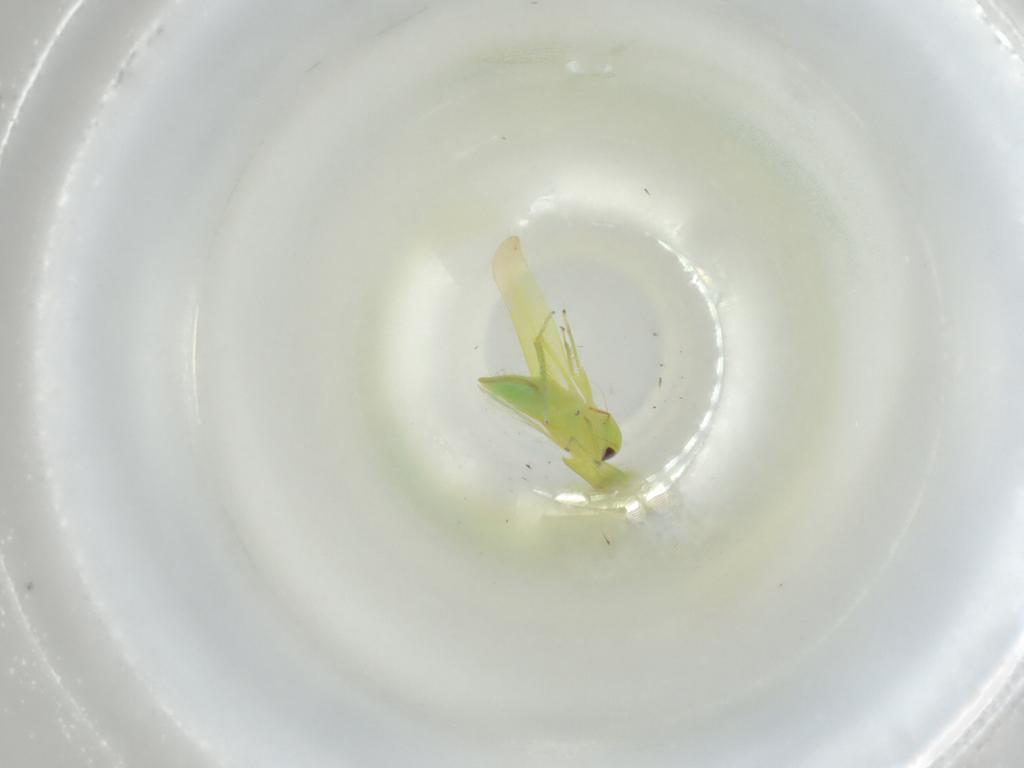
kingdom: Animalia
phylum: Arthropoda
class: Insecta
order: Hemiptera
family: Cicadellidae
